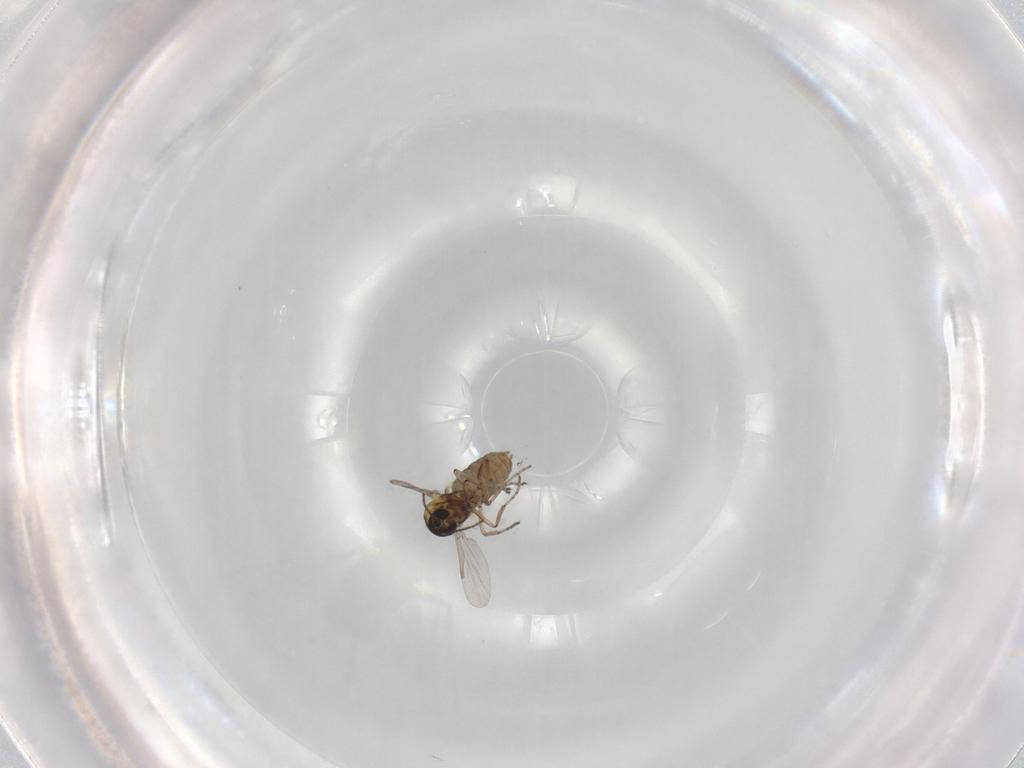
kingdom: Animalia
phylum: Arthropoda
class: Insecta
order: Diptera
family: Ceratopogonidae
